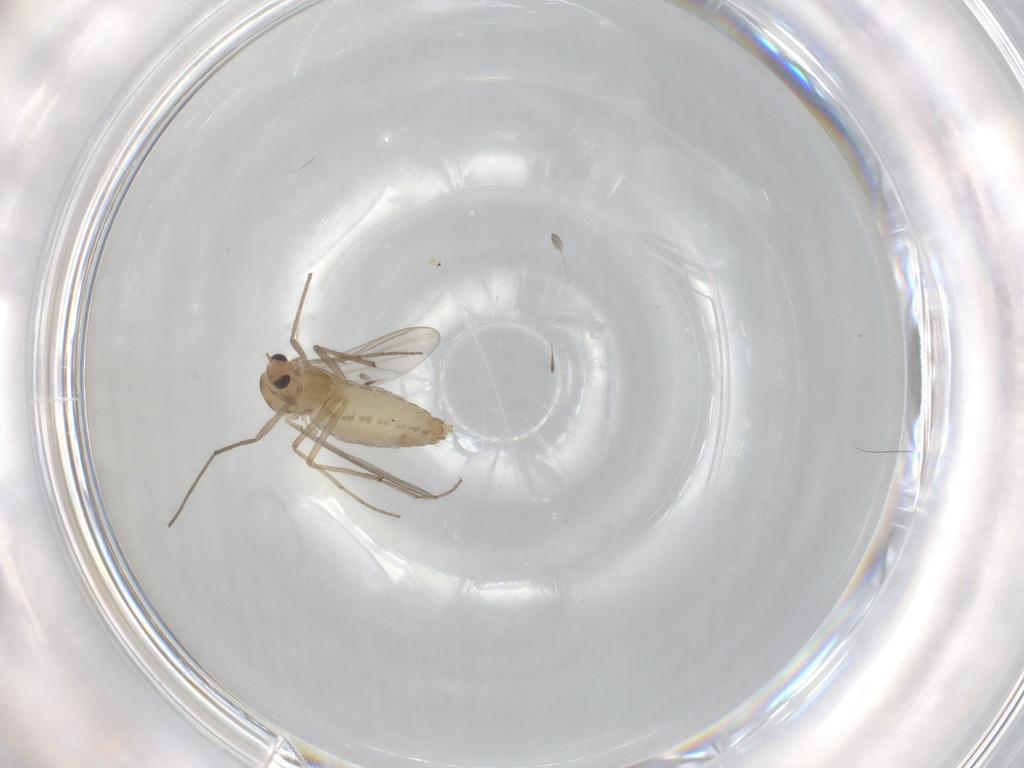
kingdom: Animalia
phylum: Arthropoda
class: Insecta
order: Diptera
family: Chironomidae
